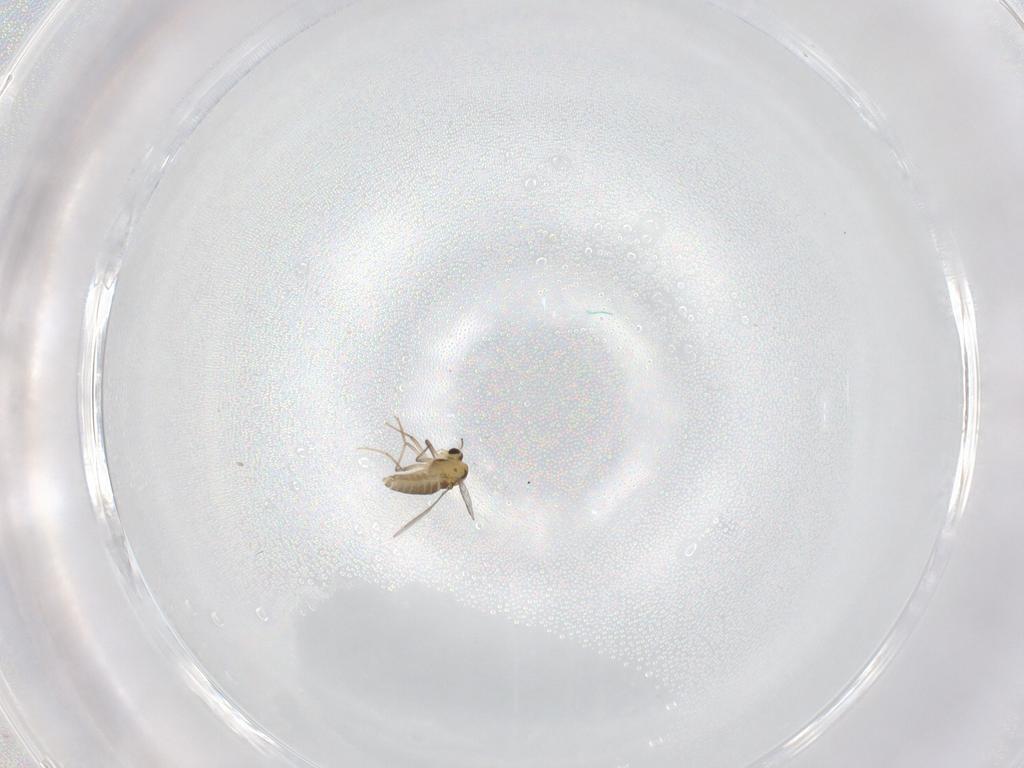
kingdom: Animalia
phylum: Arthropoda
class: Insecta
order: Diptera
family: Chironomidae
